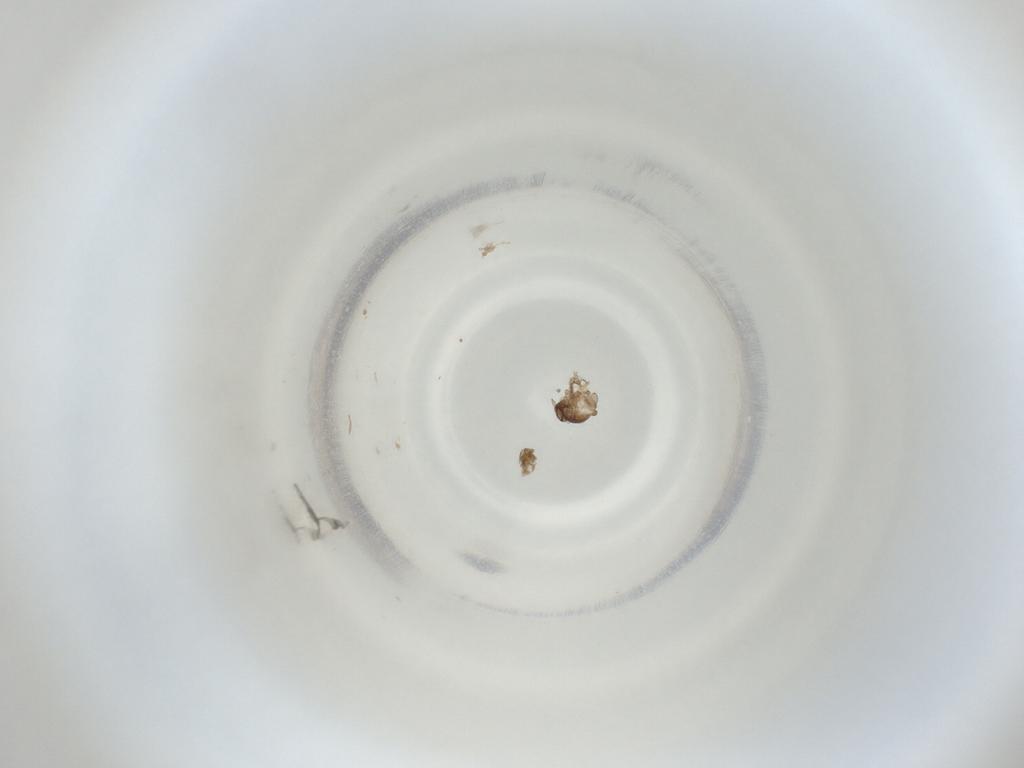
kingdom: Animalia
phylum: Arthropoda
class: Insecta
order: Diptera
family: Cecidomyiidae
